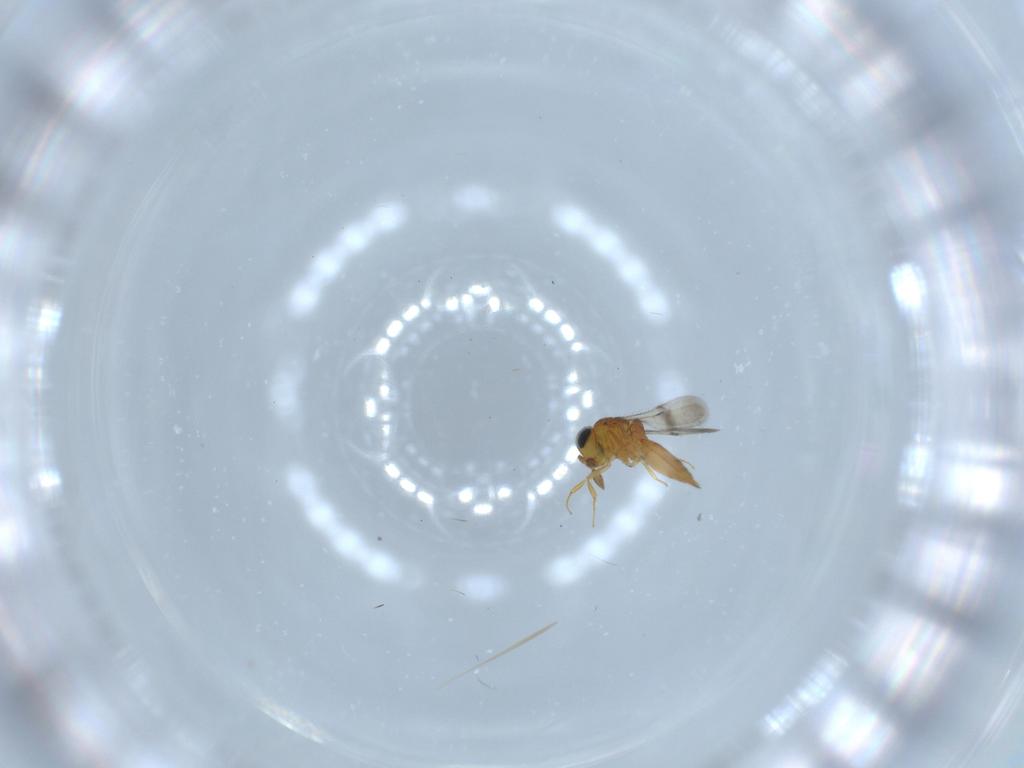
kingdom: Animalia
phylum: Arthropoda
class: Insecta
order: Hymenoptera
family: Scelionidae
